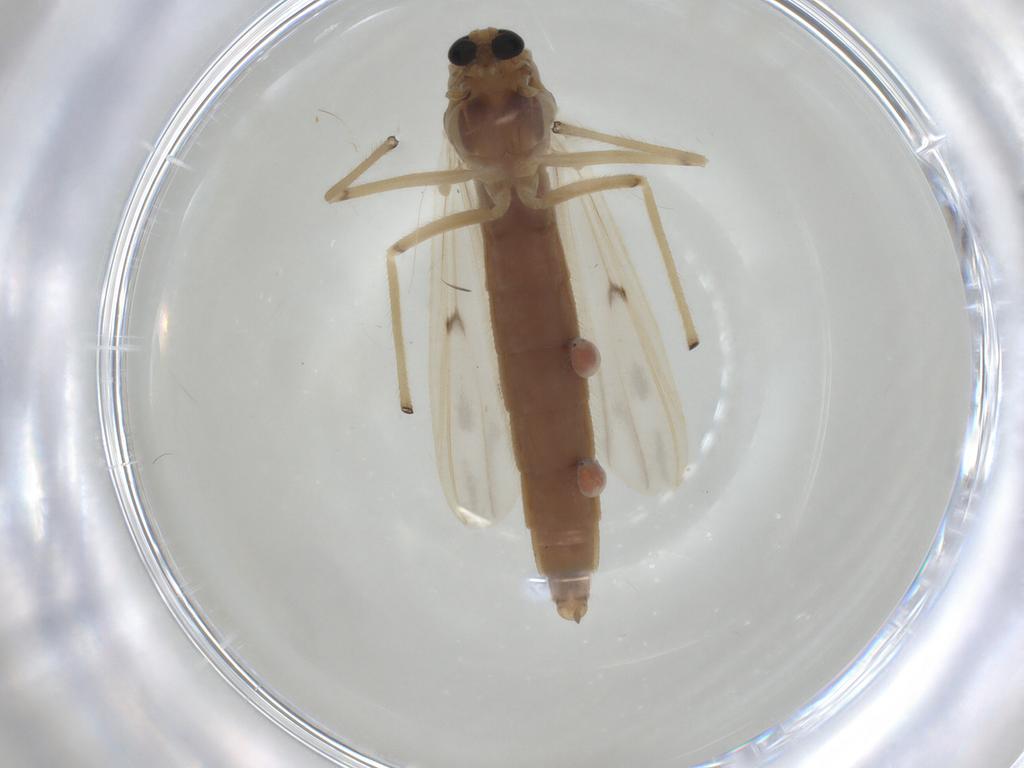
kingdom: Animalia
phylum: Arthropoda
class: Insecta
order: Diptera
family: Chironomidae
